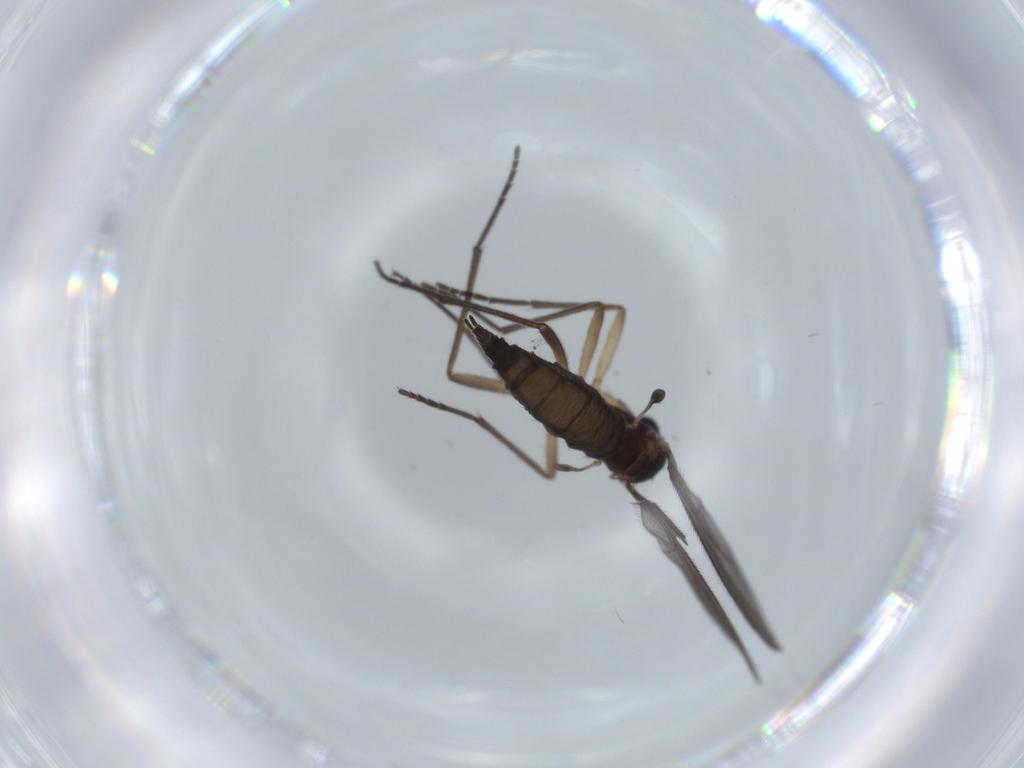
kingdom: Animalia
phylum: Arthropoda
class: Insecta
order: Diptera
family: Sciaridae
